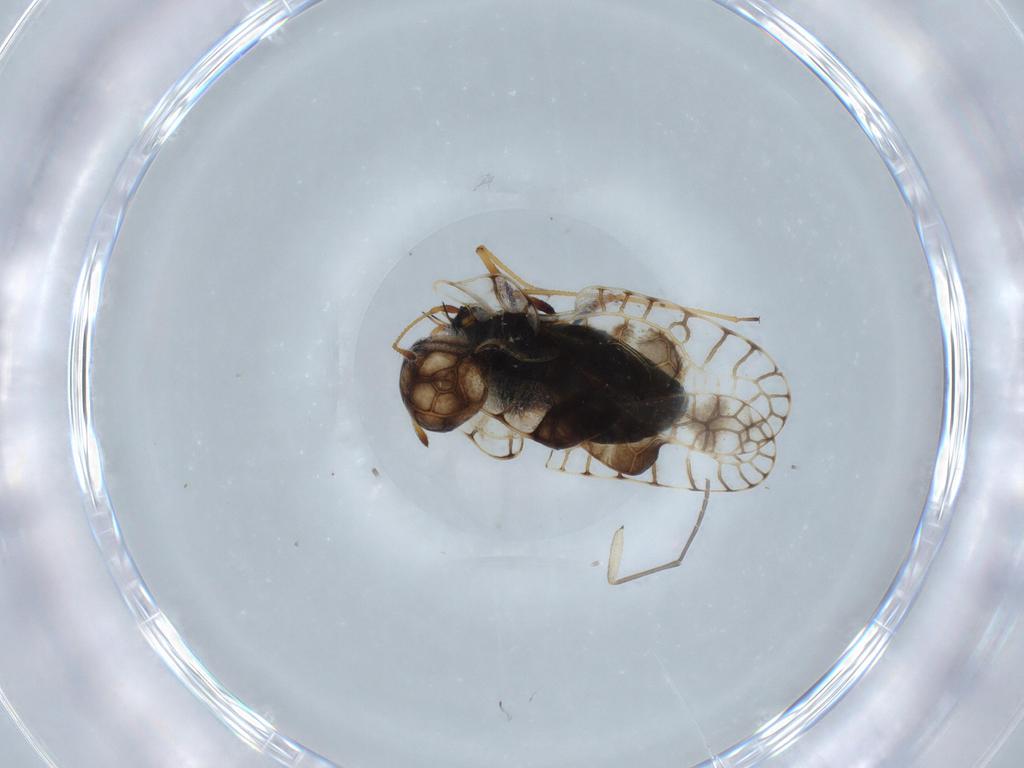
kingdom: Animalia
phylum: Arthropoda
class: Insecta
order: Hemiptera
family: Tingidae
